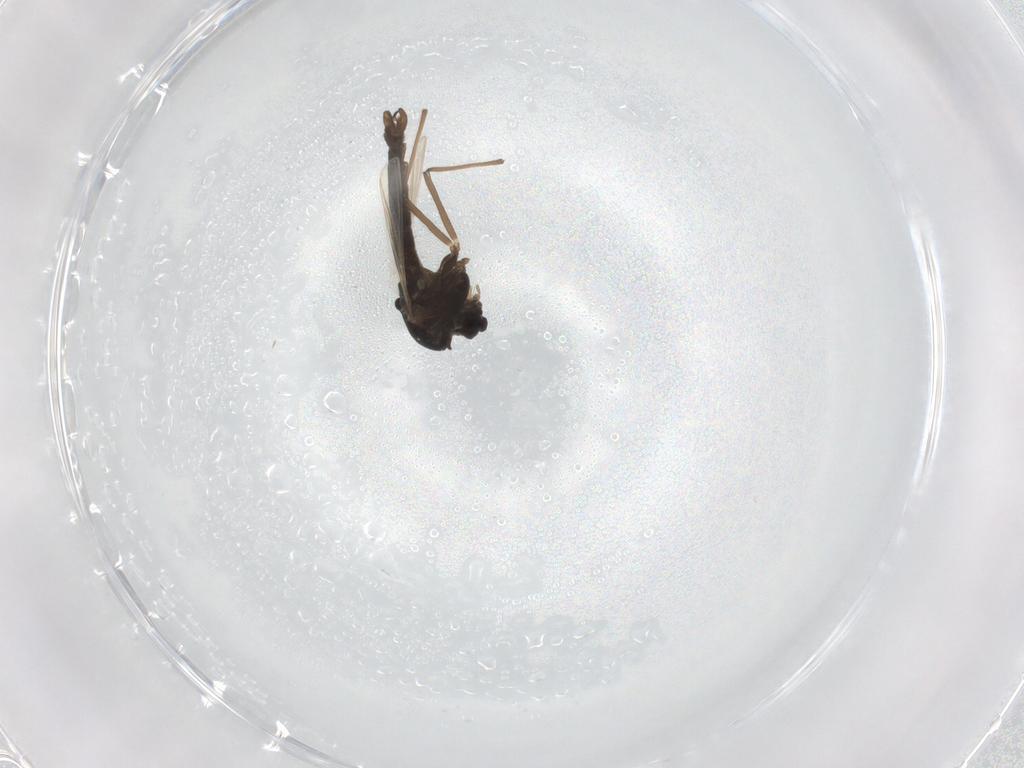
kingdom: Animalia
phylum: Arthropoda
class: Insecta
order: Diptera
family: Chironomidae
